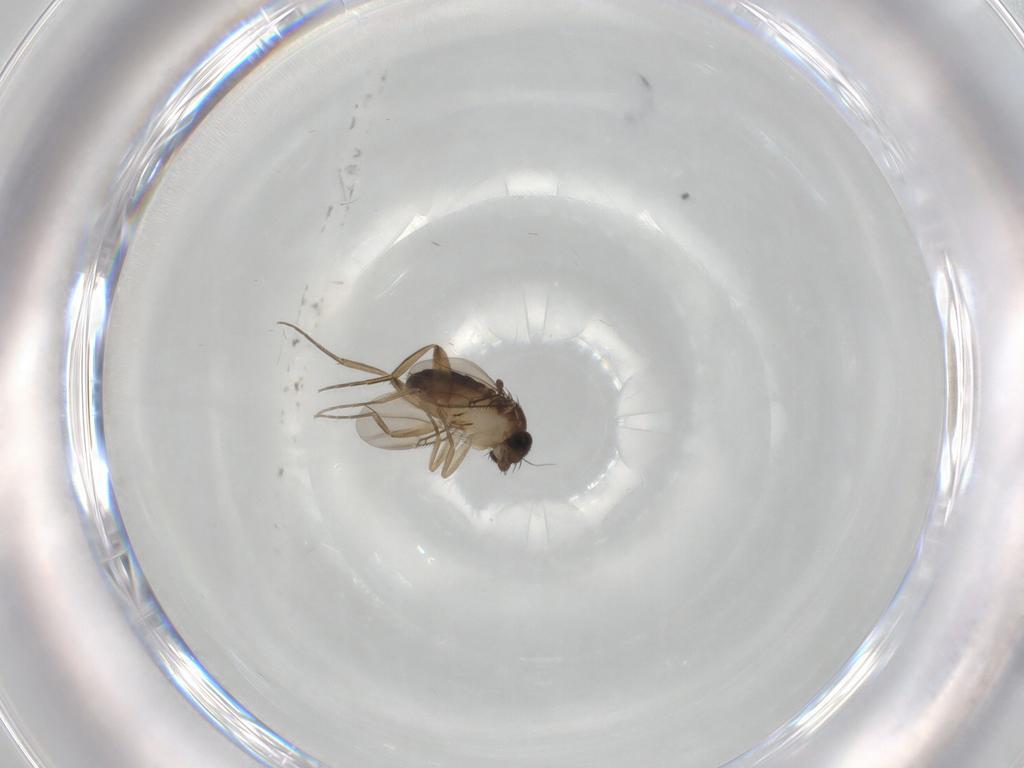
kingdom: Animalia
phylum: Arthropoda
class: Insecta
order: Diptera
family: Phoridae
